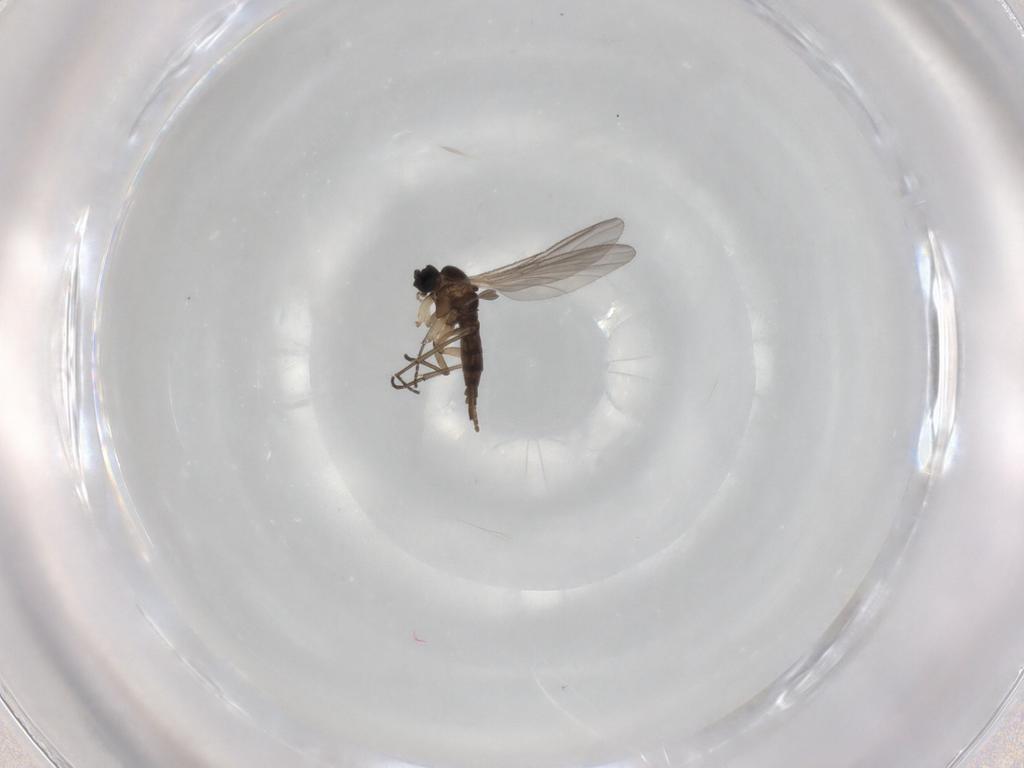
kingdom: Animalia
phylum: Arthropoda
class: Insecta
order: Diptera
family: Sciaridae
